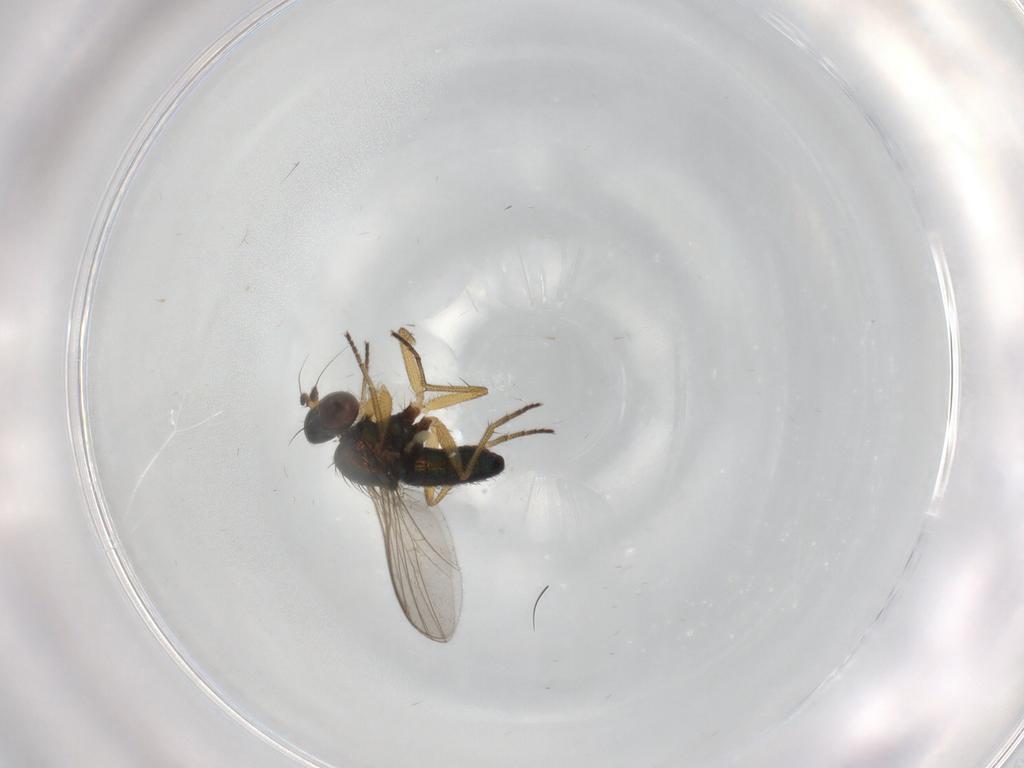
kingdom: Animalia
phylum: Arthropoda
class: Insecta
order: Diptera
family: Dolichopodidae
